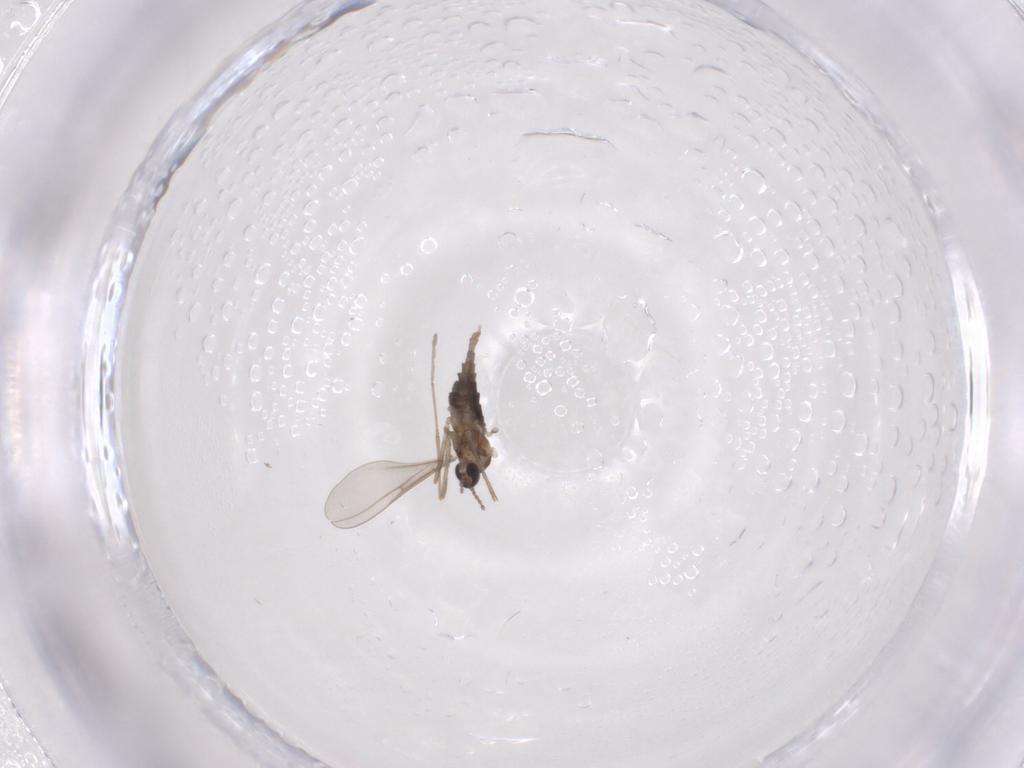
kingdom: Animalia
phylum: Arthropoda
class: Insecta
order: Diptera
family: Cecidomyiidae
